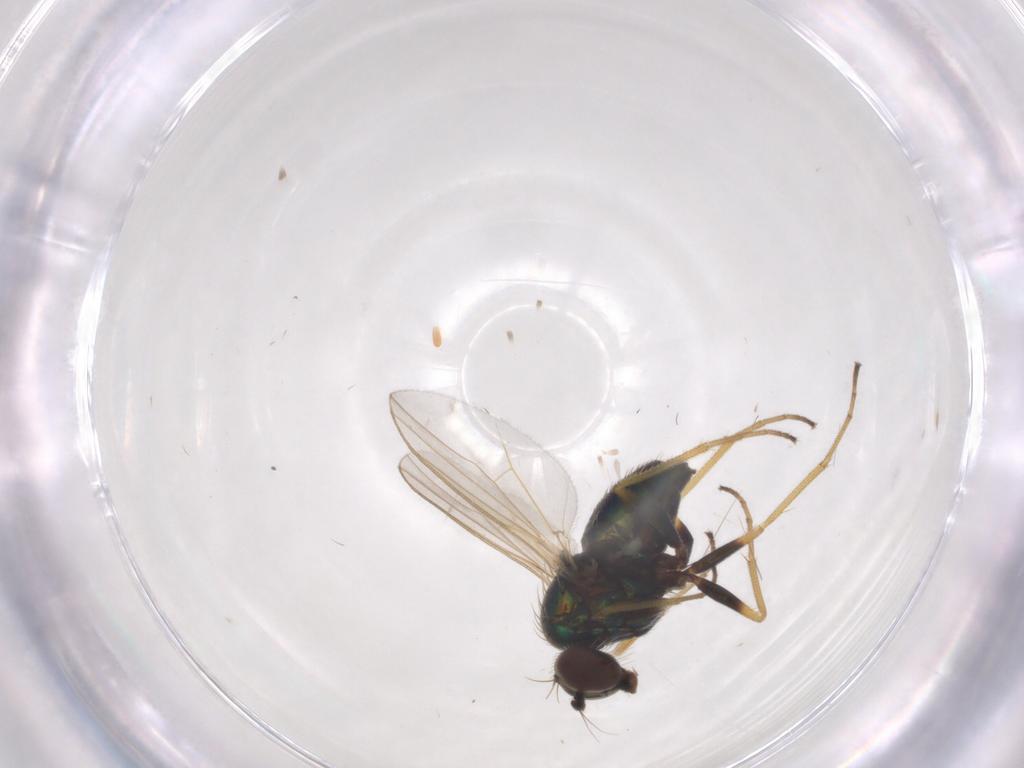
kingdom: Animalia
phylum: Arthropoda
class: Insecta
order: Diptera
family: Dolichopodidae
